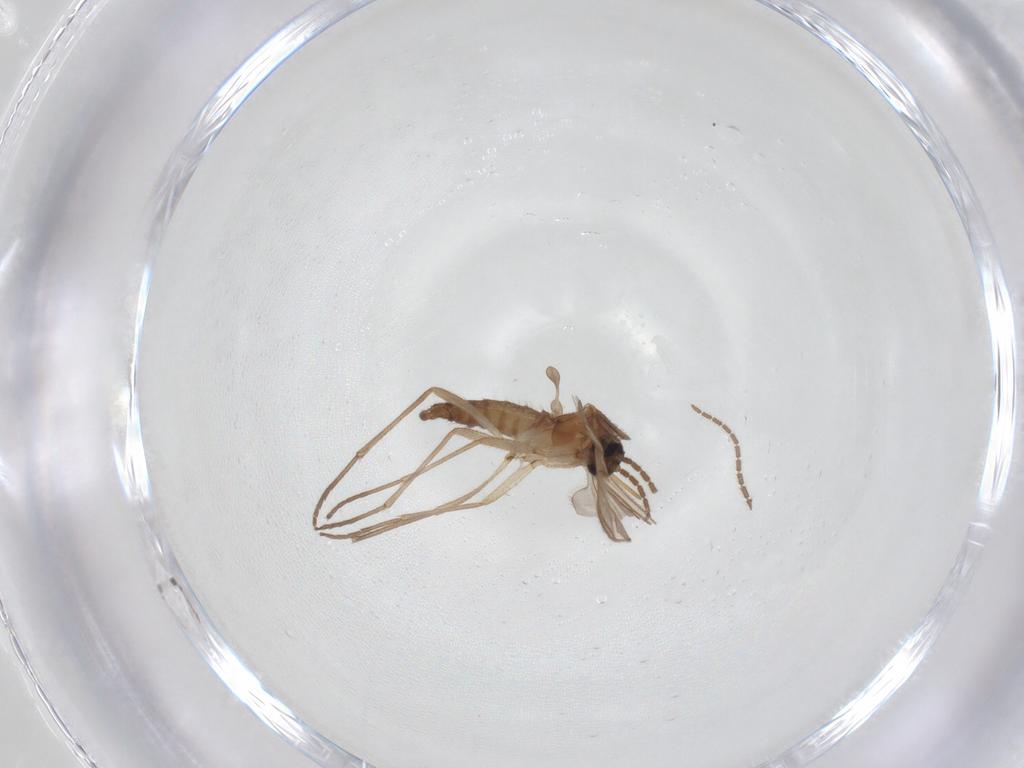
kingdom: Animalia
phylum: Arthropoda
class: Insecta
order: Diptera
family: Sciaridae
